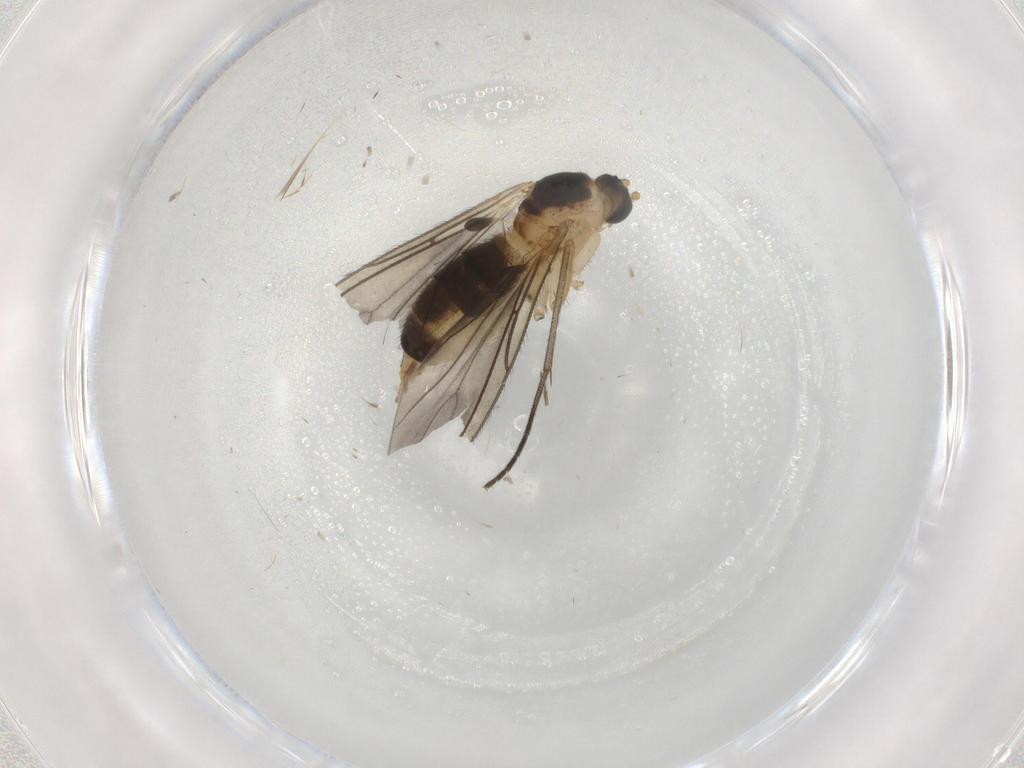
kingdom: Animalia
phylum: Arthropoda
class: Insecta
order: Diptera
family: Sciaridae
